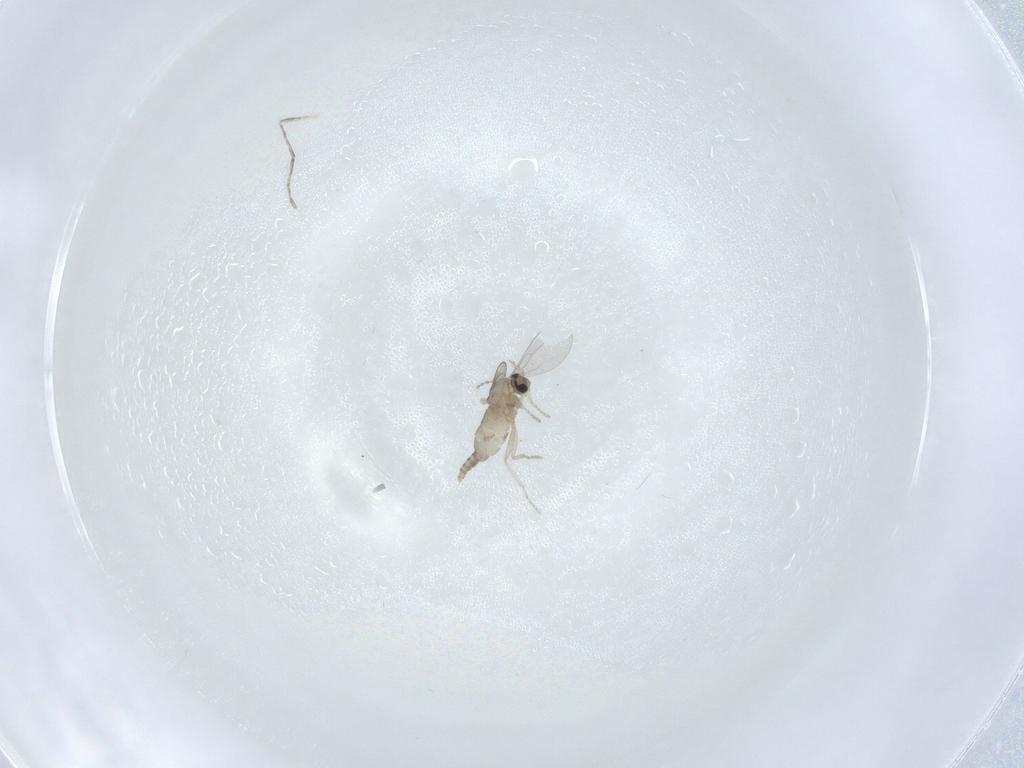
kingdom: Animalia
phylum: Arthropoda
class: Insecta
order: Diptera
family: Cecidomyiidae
